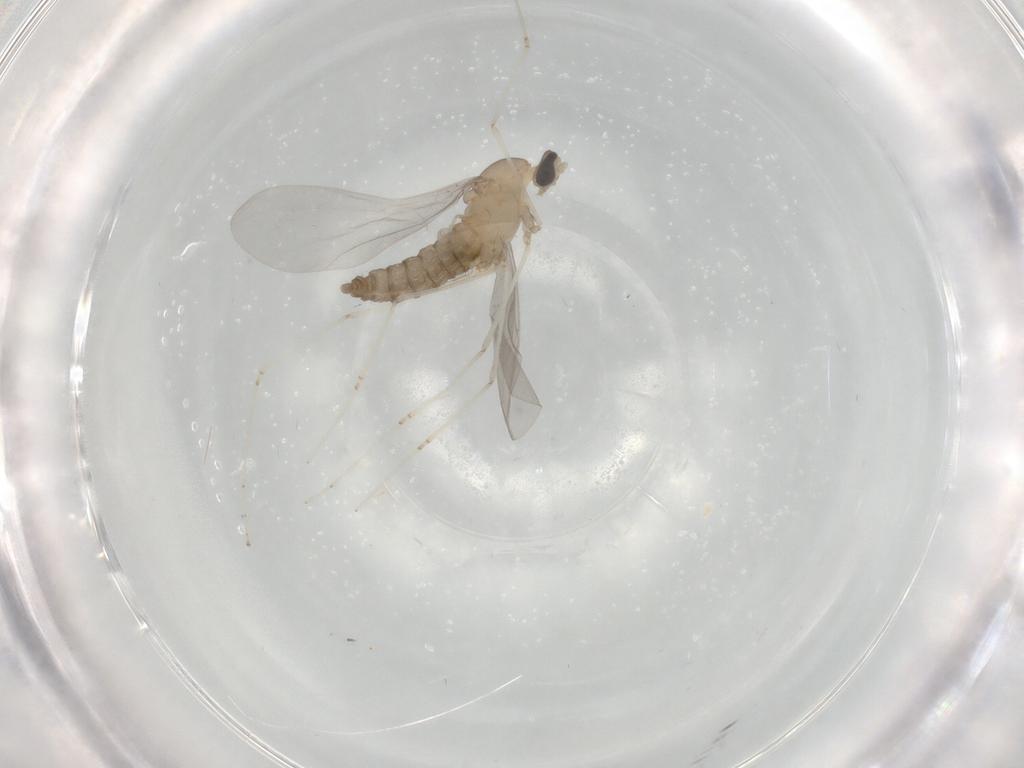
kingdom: Animalia
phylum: Arthropoda
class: Insecta
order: Diptera
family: Cecidomyiidae
